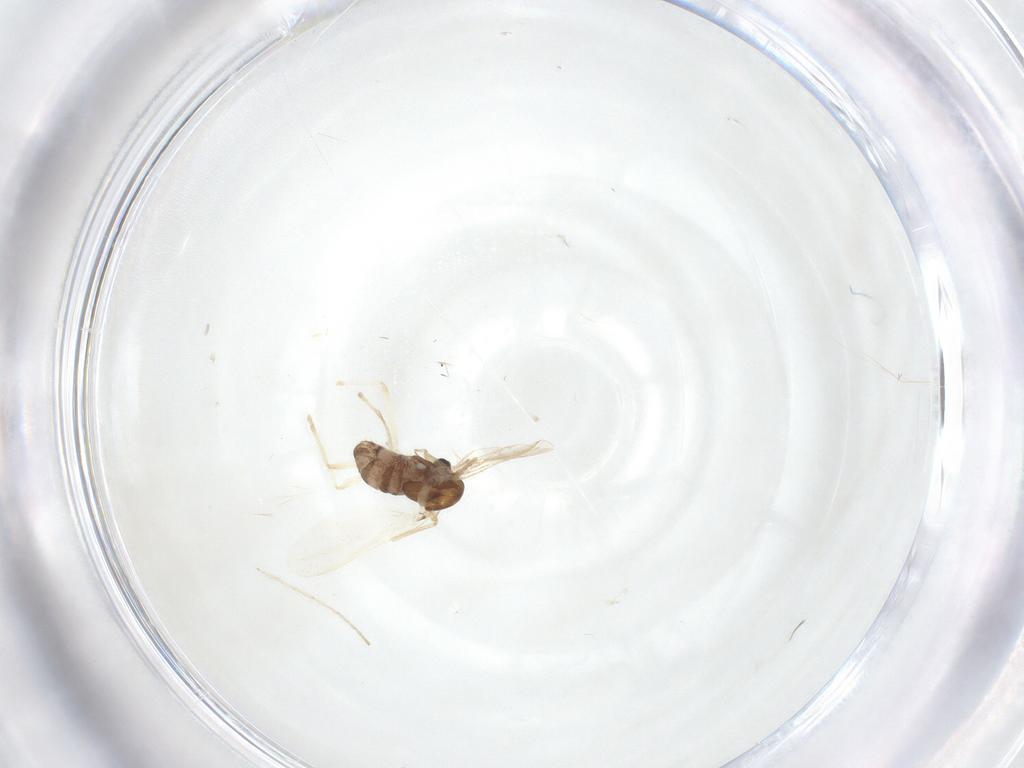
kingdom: Animalia
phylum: Arthropoda
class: Insecta
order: Diptera
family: Chironomidae
